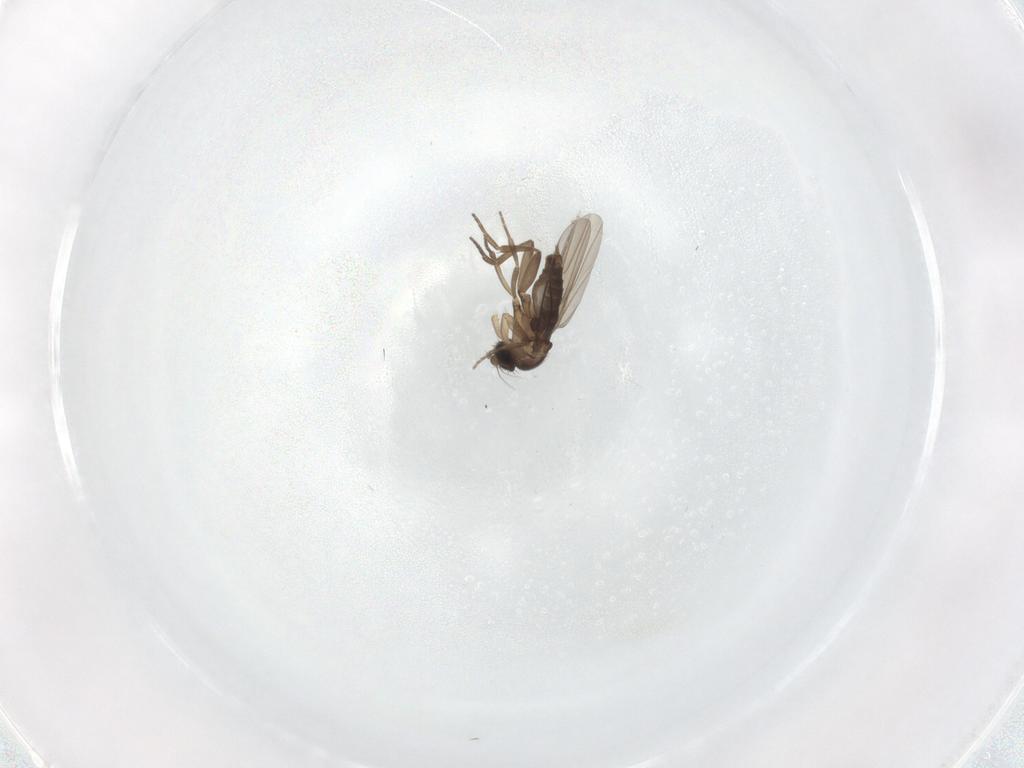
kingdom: Animalia
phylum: Arthropoda
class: Insecta
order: Diptera
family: Phoridae
